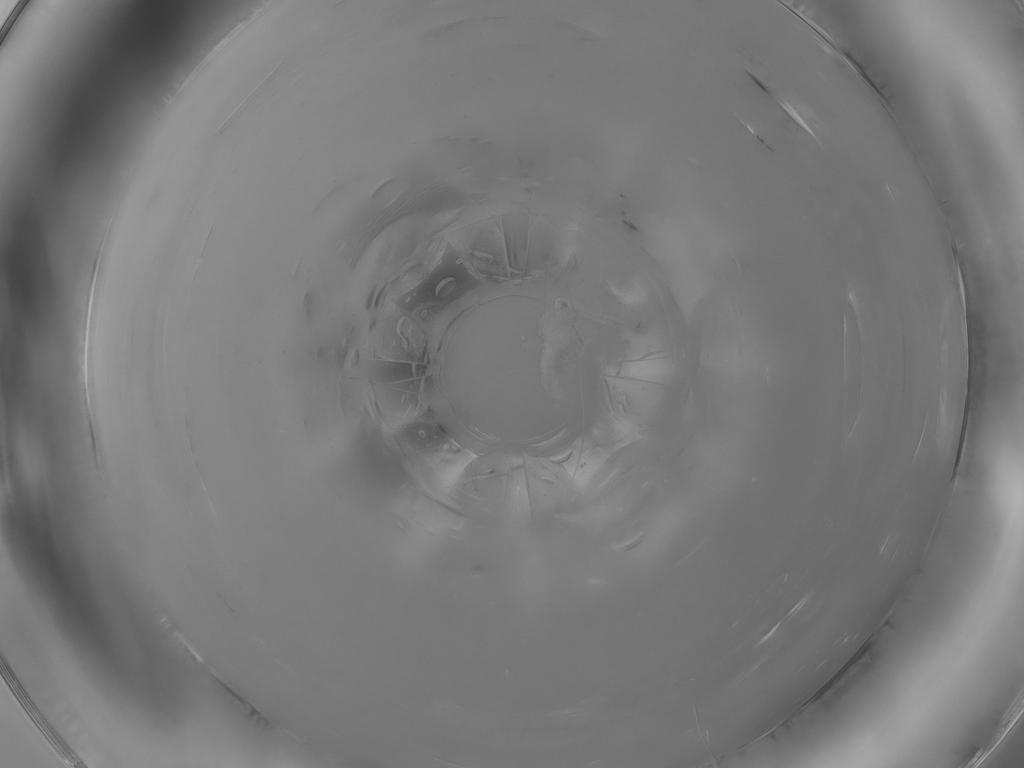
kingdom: Animalia
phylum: Arthropoda
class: Insecta
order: Diptera
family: Cecidomyiidae
